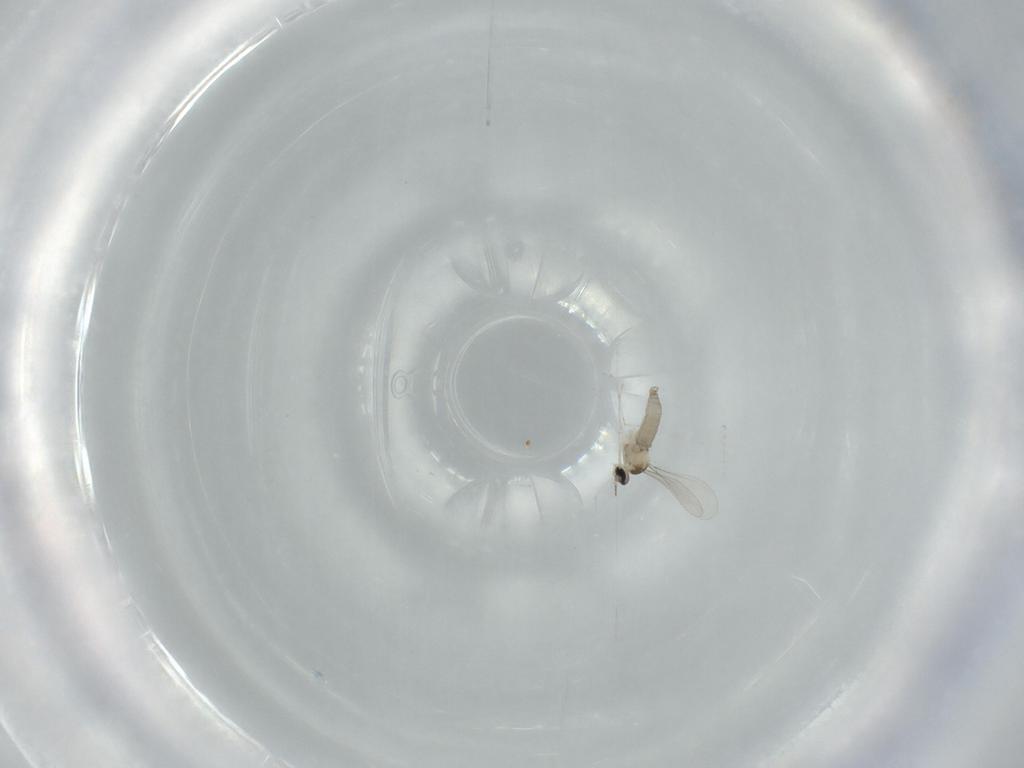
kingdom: Animalia
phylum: Arthropoda
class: Insecta
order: Diptera
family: Cecidomyiidae
